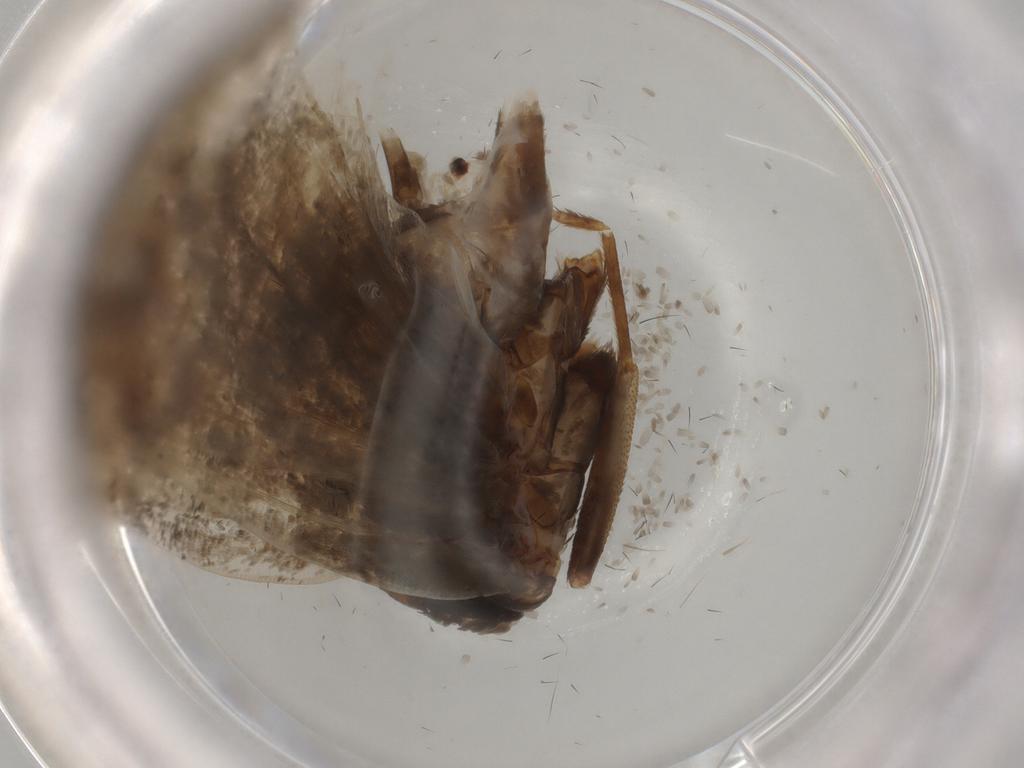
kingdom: Animalia
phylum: Arthropoda
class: Insecta
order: Lepidoptera
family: Tortricidae
